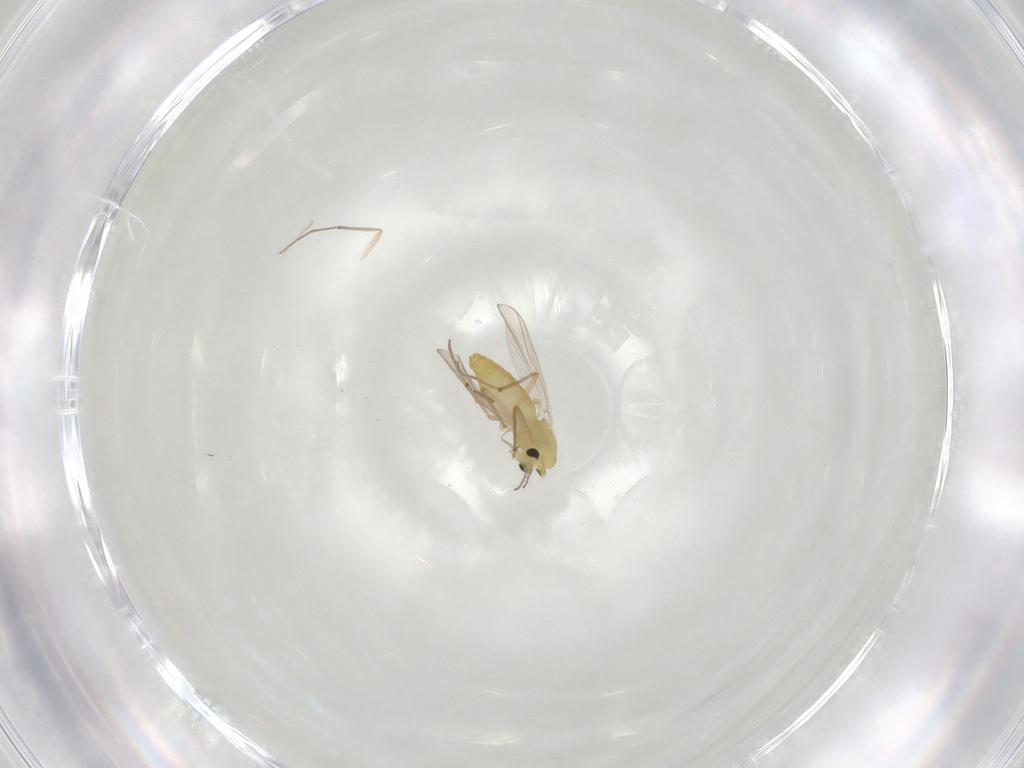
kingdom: Animalia
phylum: Arthropoda
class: Insecta
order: Diptera
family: Chironomidae
